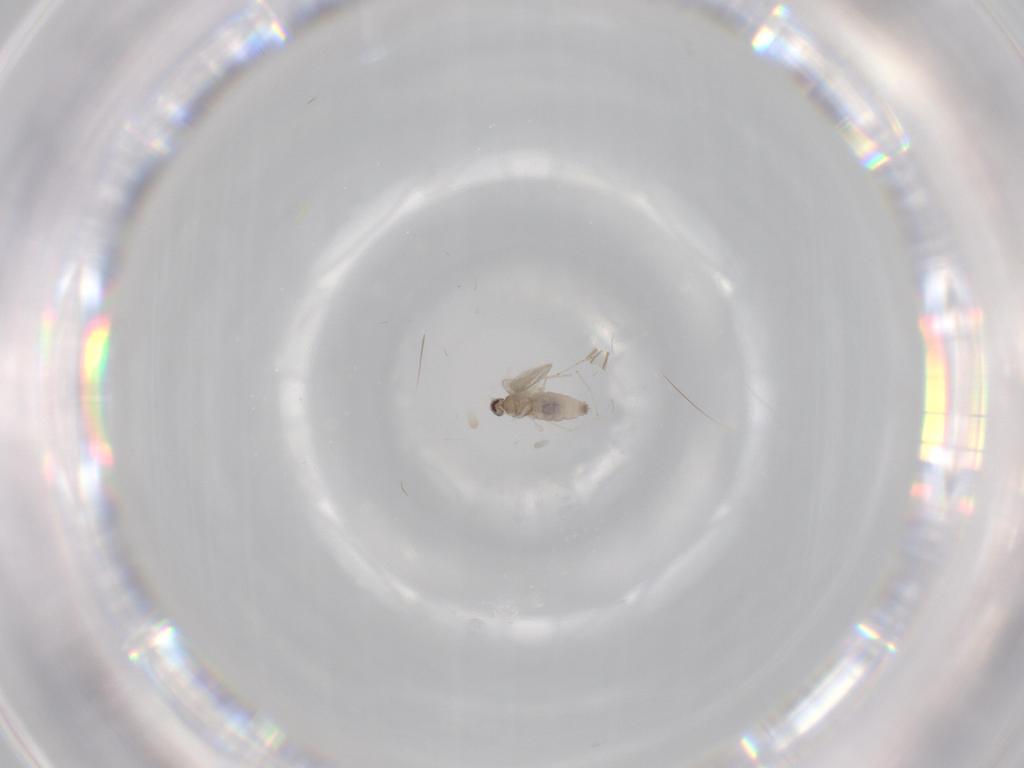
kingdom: Animalia
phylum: Arthropoda
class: Insecta
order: Diptera
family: Cecidomyiidae
